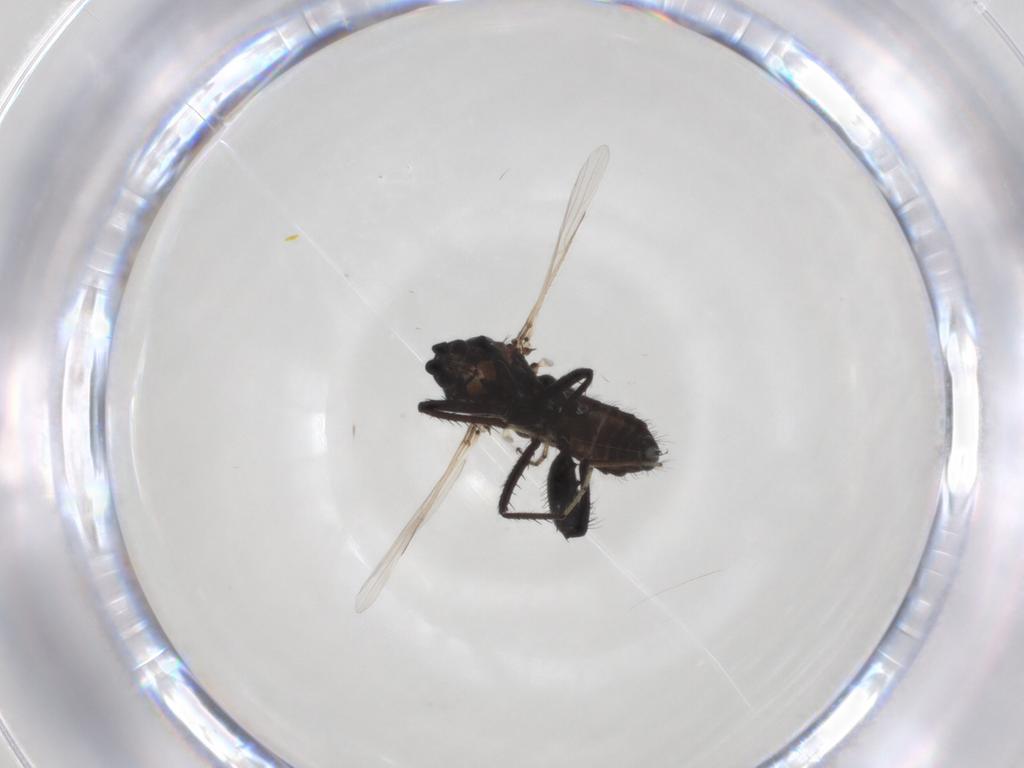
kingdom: Animalia
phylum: Arthropoda
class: Insecta
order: Diptera
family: Ceratopogonidae
